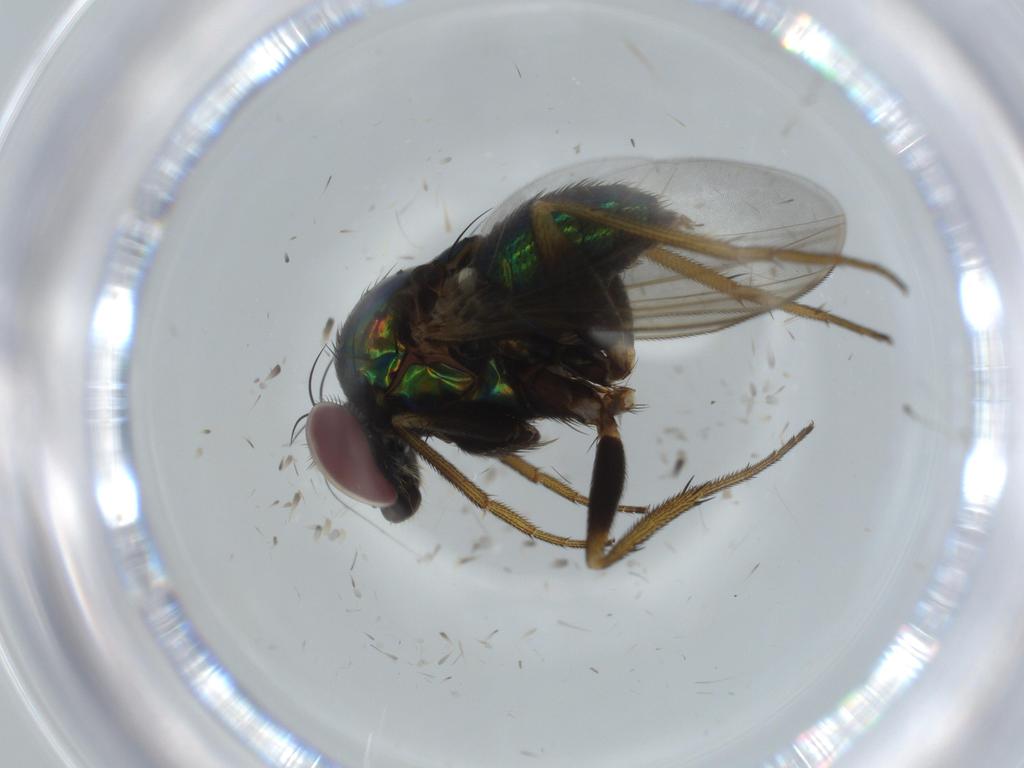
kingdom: Animalia
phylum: Arthropoda
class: Insecta
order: Diptera
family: Dolichopodidae
